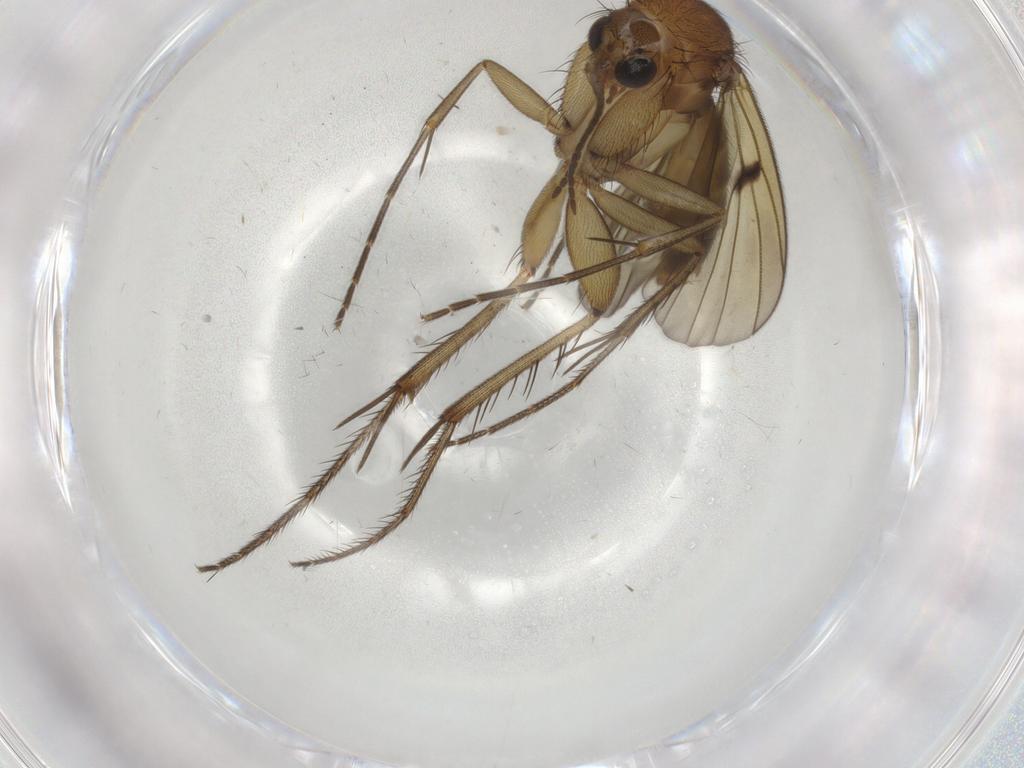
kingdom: Animalia
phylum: Arthropoda
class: Insecta
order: Diptera
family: Mycetophilidae
